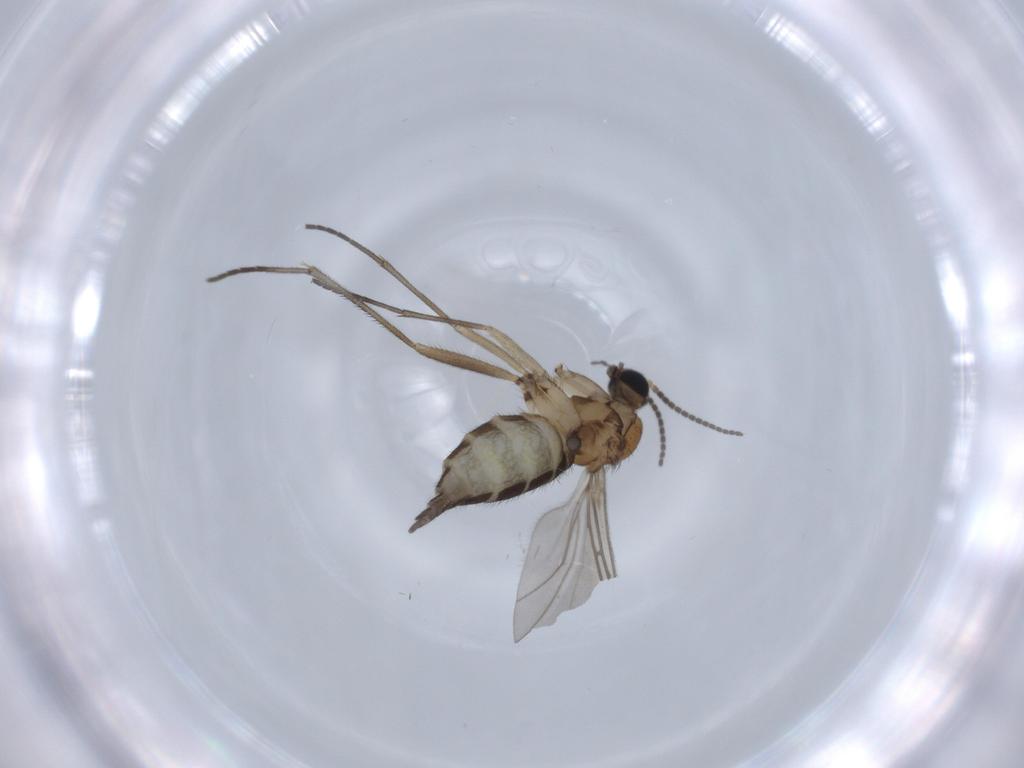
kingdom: Animalia
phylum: Arthropoda
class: Insecta
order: Diptera
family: Sciaridae
